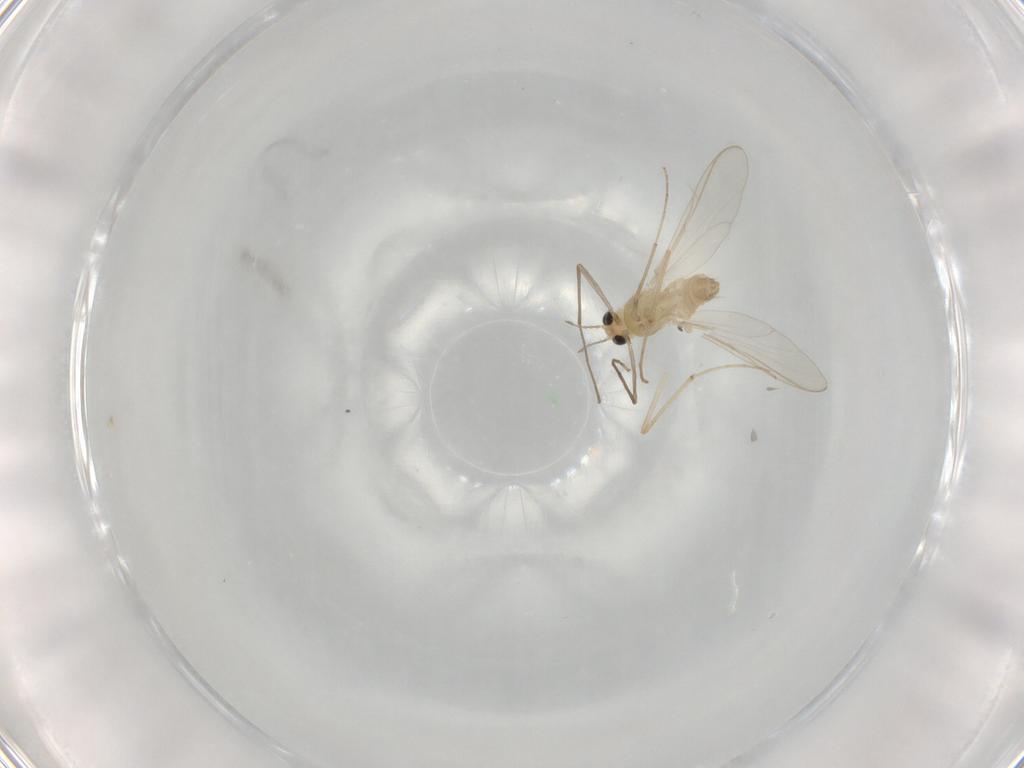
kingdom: Animalia
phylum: Arthropoda
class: Insecta
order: Diptera
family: Chironomidae
